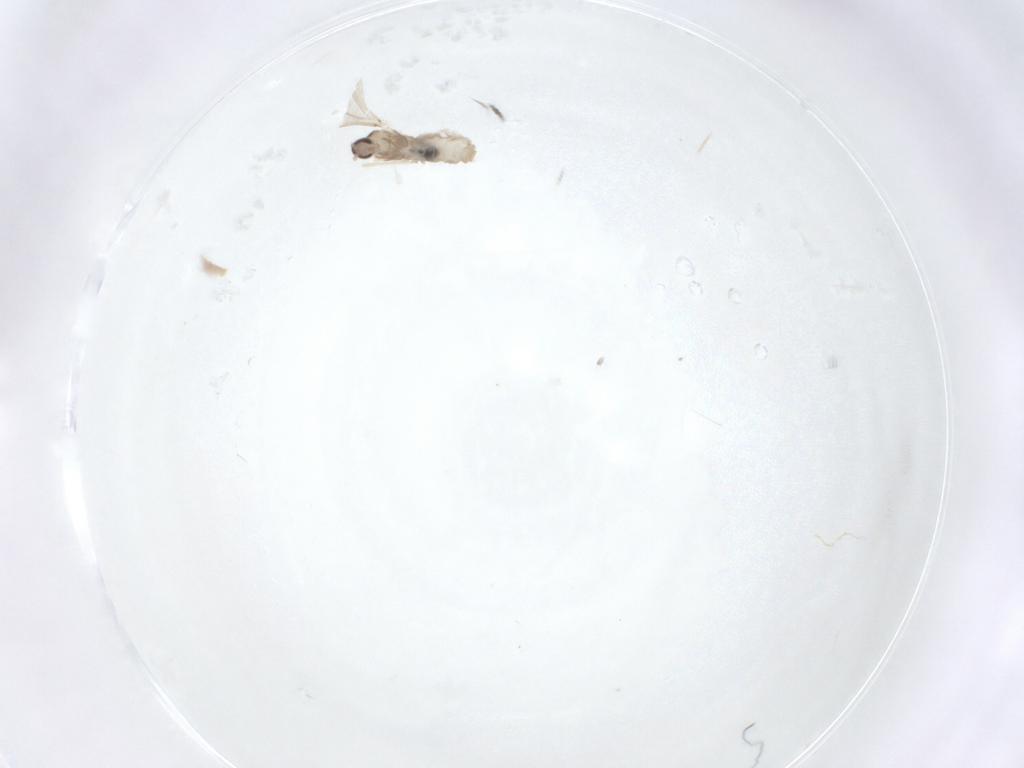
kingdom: Animalia
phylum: Arthropoda
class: Insecta
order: Diptera
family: Cecidomyiidae
